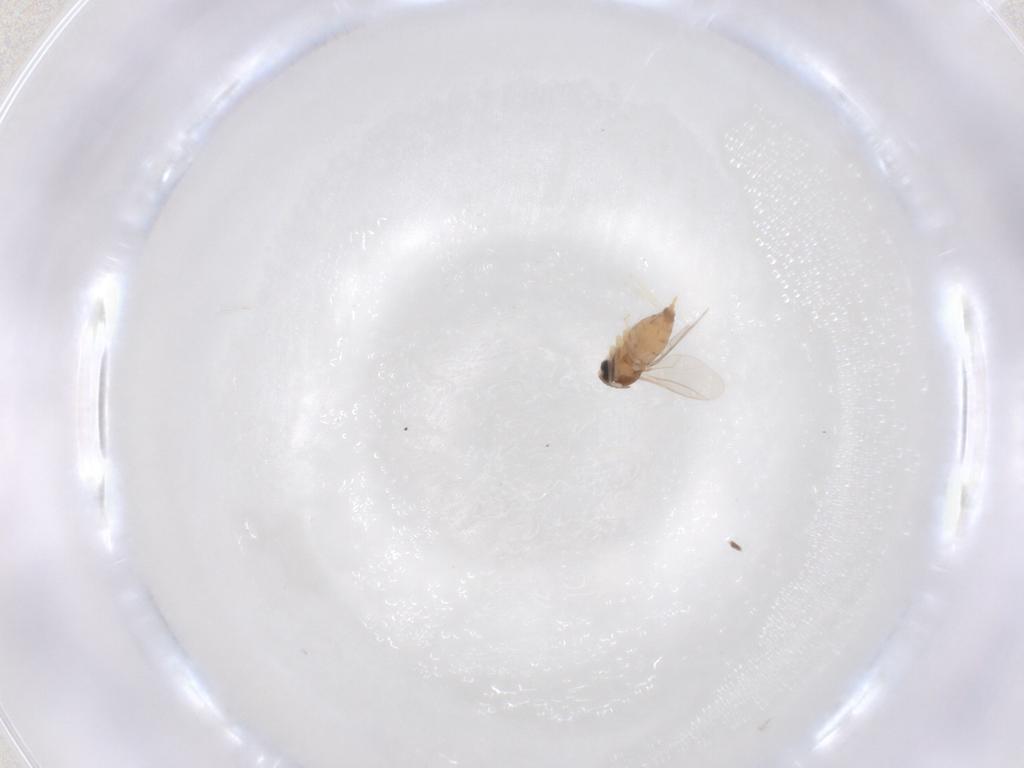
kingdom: Animalia
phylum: Arthropoda
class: Insecta
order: Diptera
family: Cecidomyiidae
